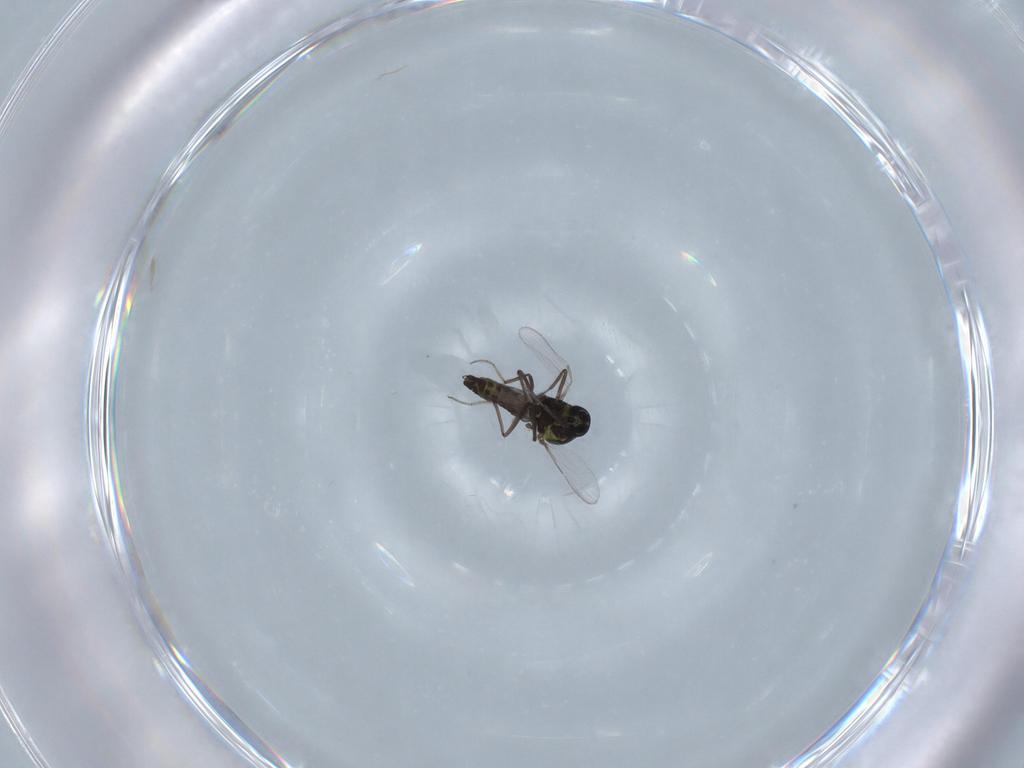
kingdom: Animalia
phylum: Arthropoda
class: Insecta
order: Diptera
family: Ceratopogonidae
